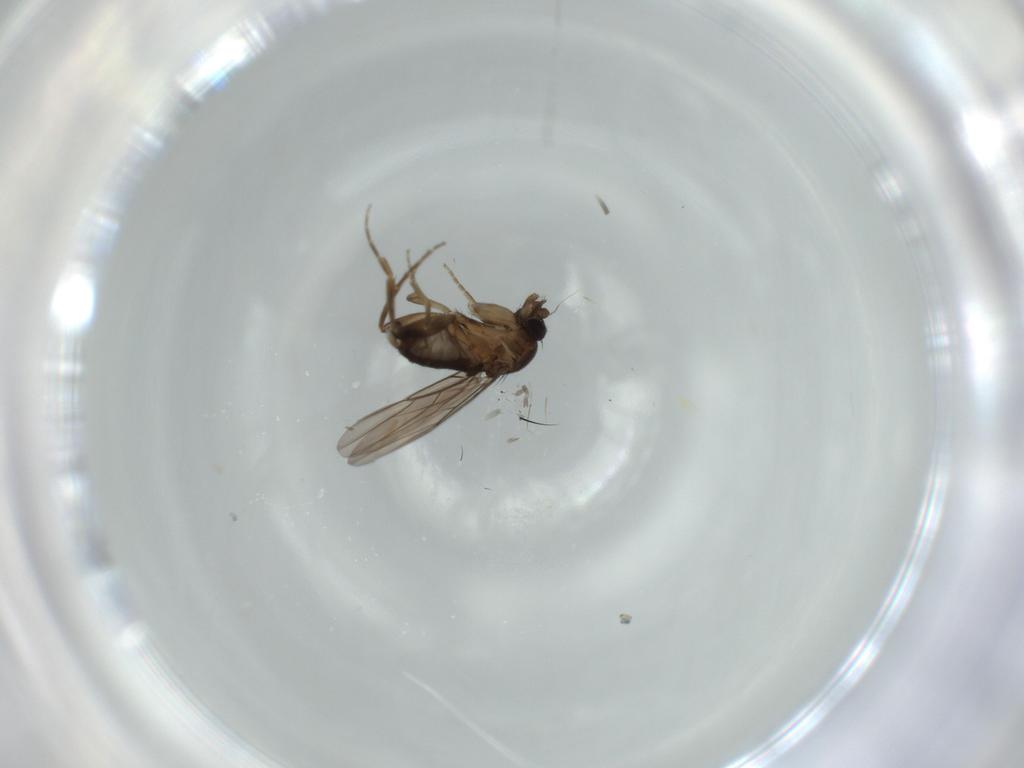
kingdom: Animalia
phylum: Arthropoda
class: Insecta
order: Diptera
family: Cecidomyiidae
